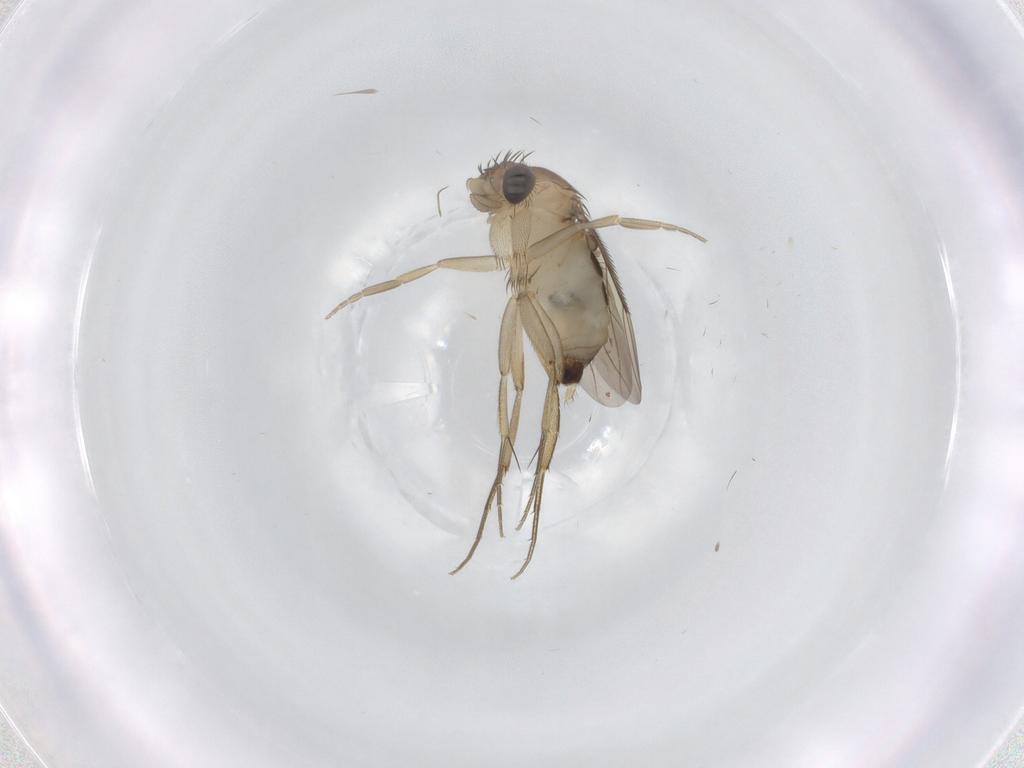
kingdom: Animalia
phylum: Arthropoda
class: Insecta
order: Diptera
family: Phoridae
